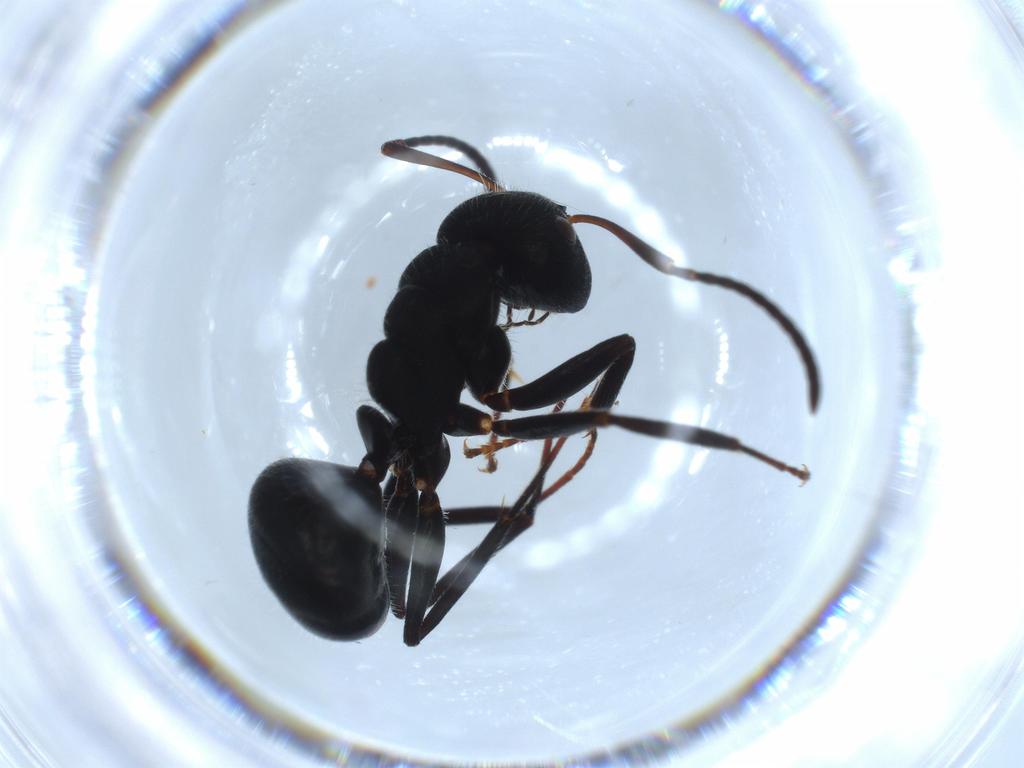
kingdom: Animalia
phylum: Arthropoda
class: Insecta
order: Hymenoptera
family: Formicidae
